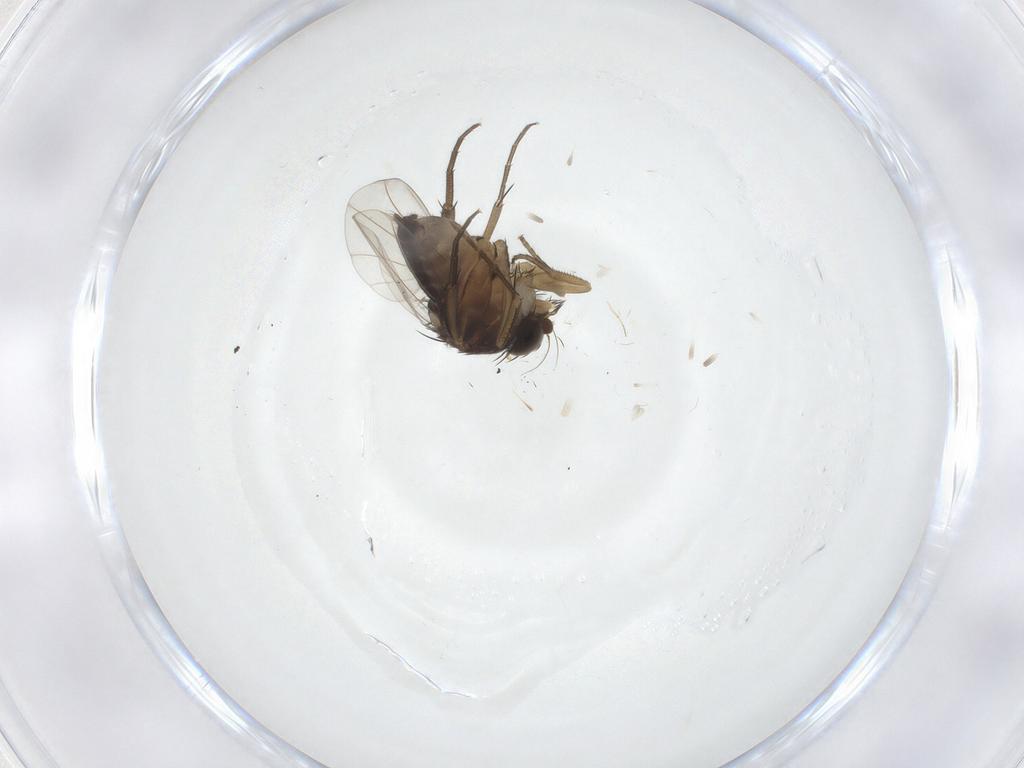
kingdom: Animalia
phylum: Arthropoda
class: Insecta
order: Diptera
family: Phoridae
